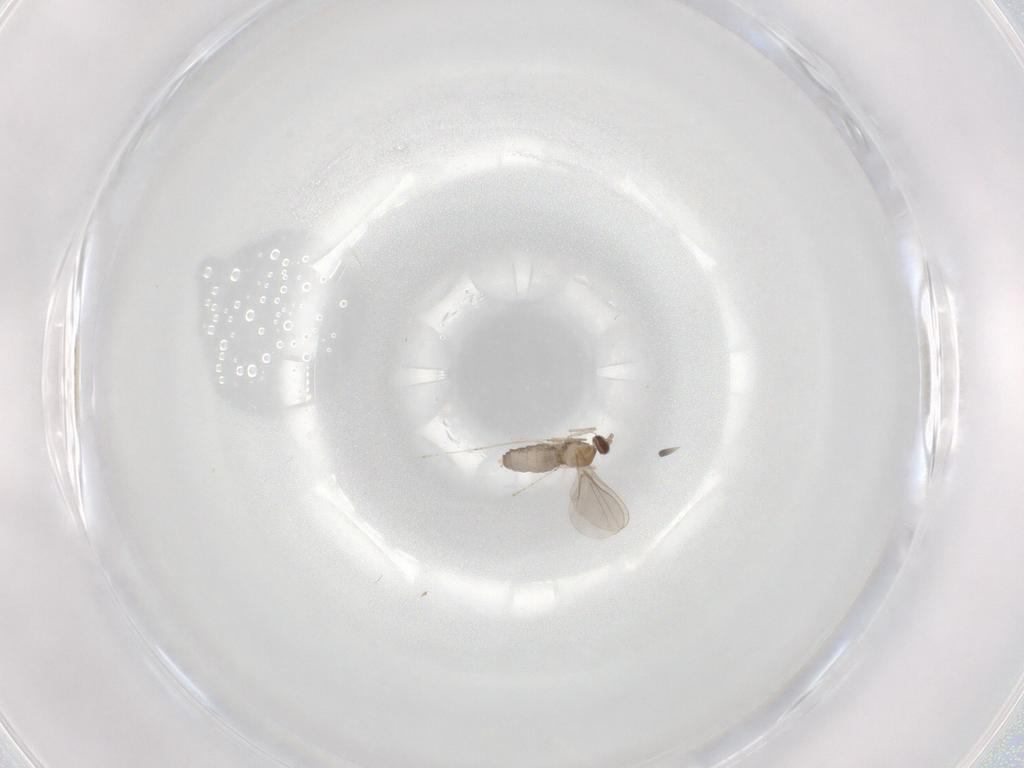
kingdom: Animalia
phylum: Arthropoda
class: Insecta
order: Diptera
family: Cecidomyiidae
